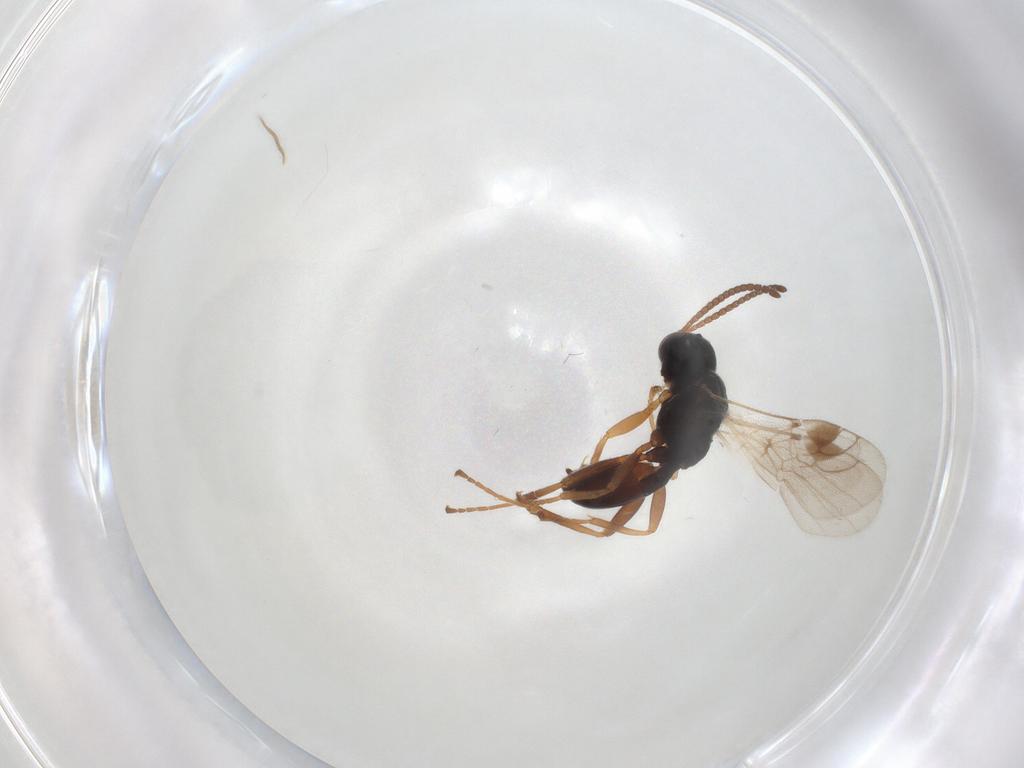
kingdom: Animalia
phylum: Arthropoda
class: Insecta
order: Hymenoptera
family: Braconidae
